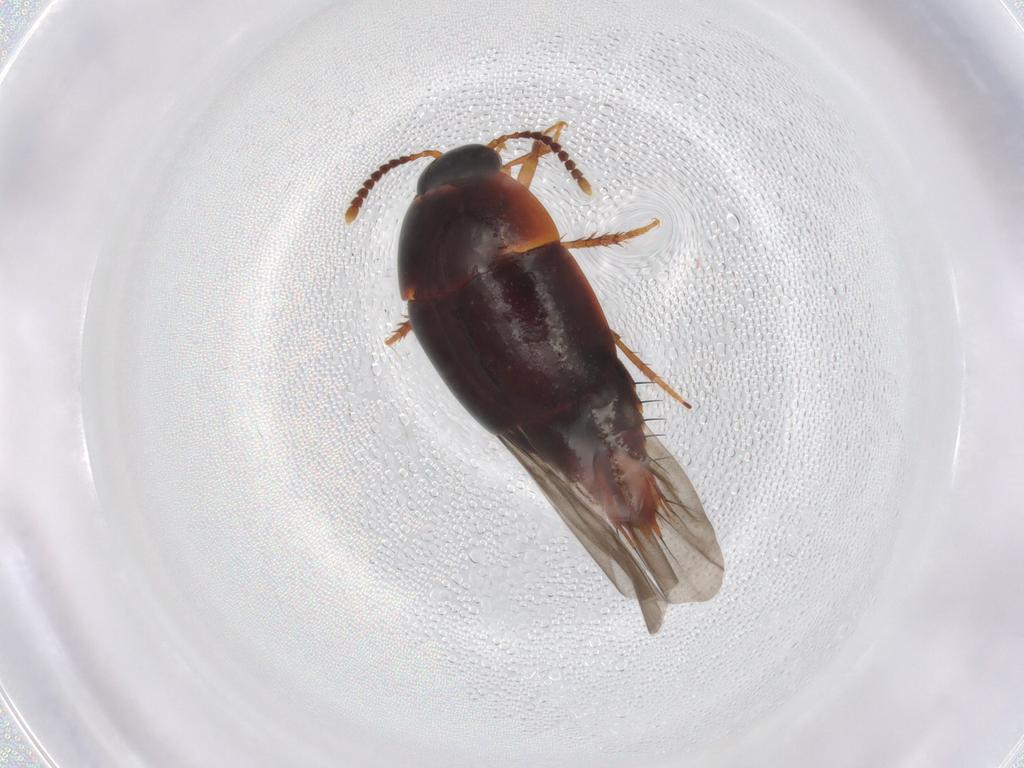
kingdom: Animalia
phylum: Arthropoda
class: Insecta
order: Coleoptera
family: Staphylinidae
